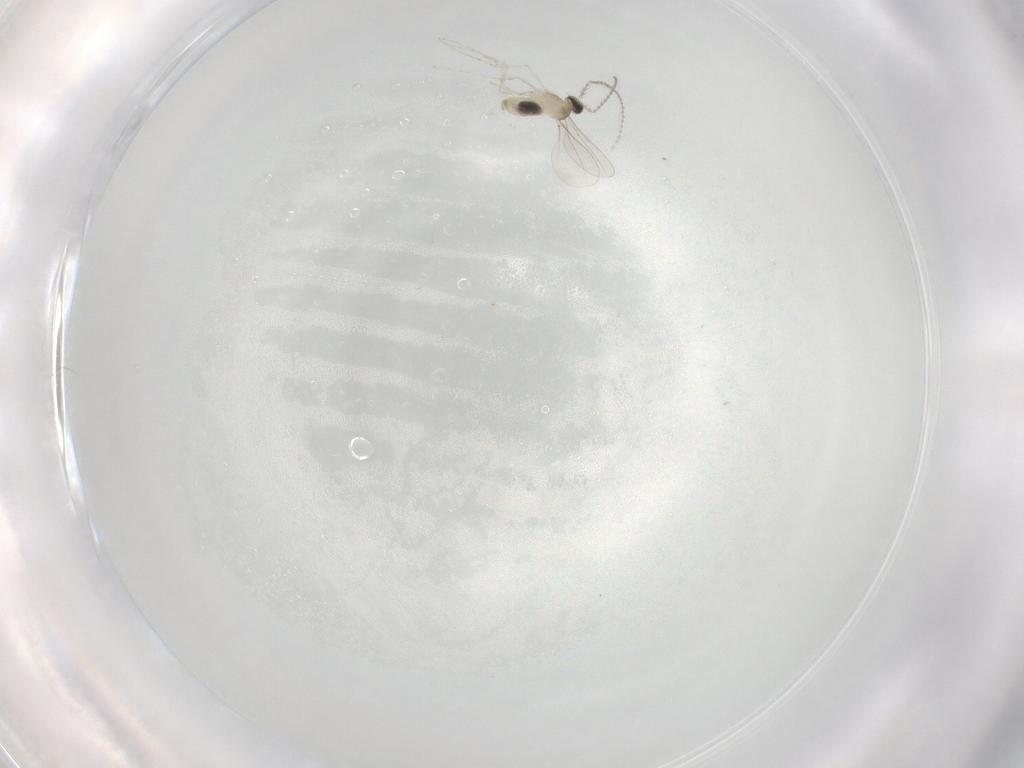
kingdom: Animalia
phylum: Arthropoda
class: Insecta
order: Diptera
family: Cecidomyiidae
